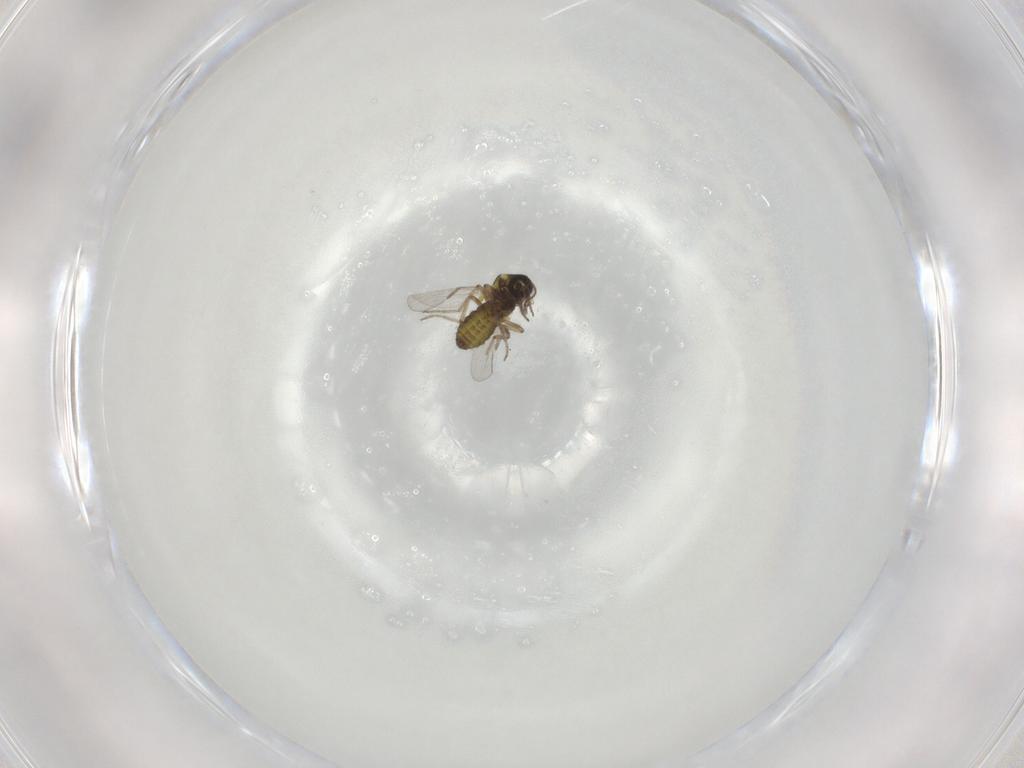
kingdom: Animalia
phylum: Arthropoda
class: Insecta
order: Diptera
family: Ceratopogonidae
